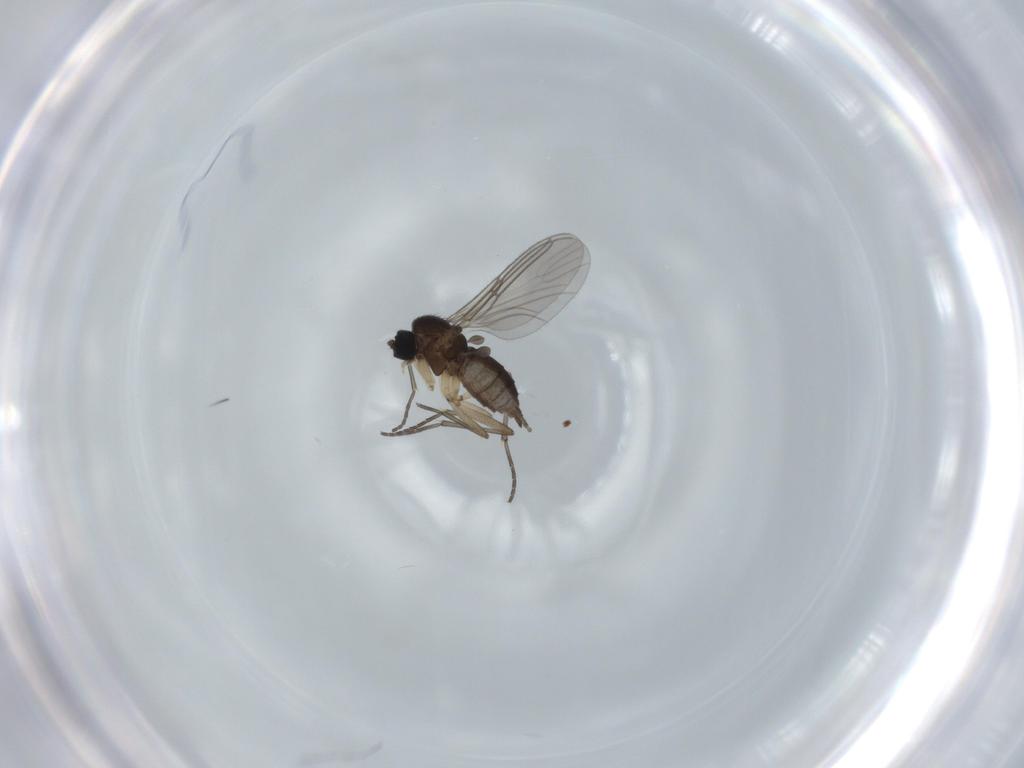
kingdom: Animalia
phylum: Arthropoda
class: Insecta
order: Diptera
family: Sciaridae
